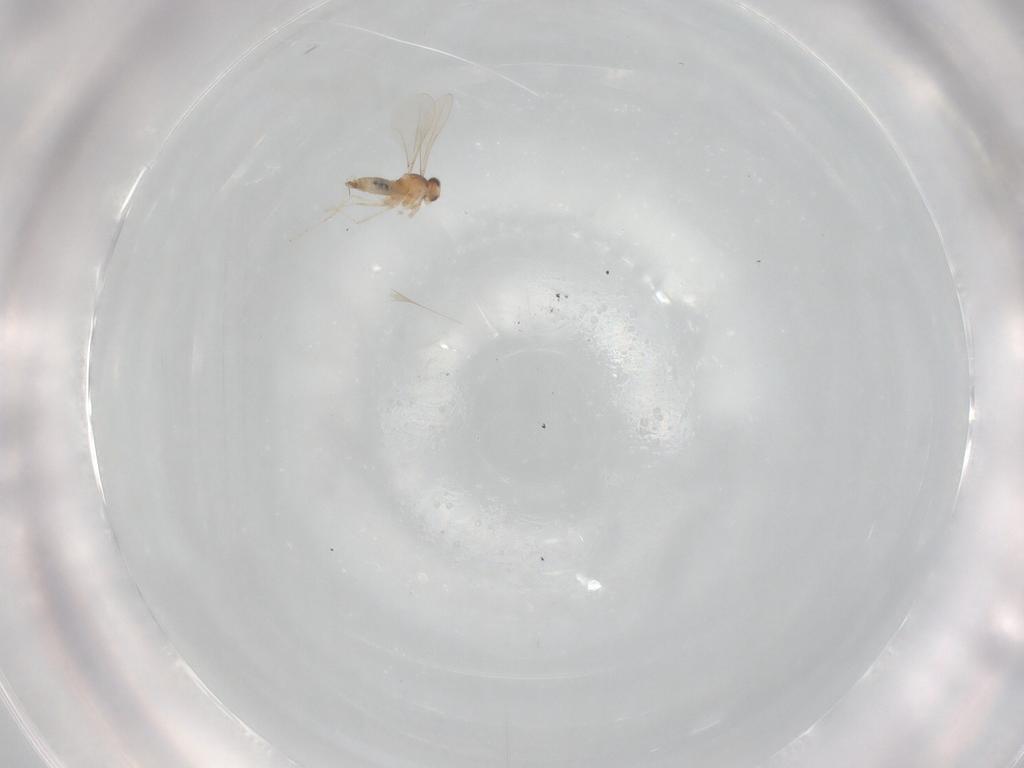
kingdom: Animalia
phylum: Arthropoda
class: Insecta
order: Diptera
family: Cecidomyiidae
